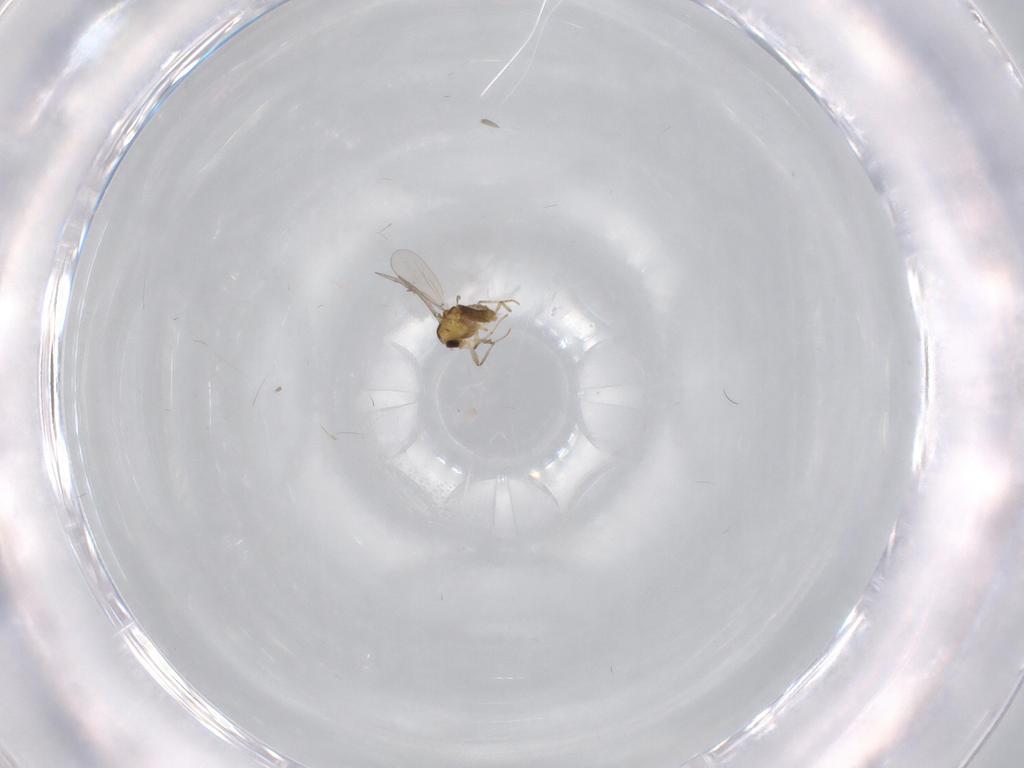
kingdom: Animalia
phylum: Arthropoda
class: Insecta
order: Diptera
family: Chironomidae
